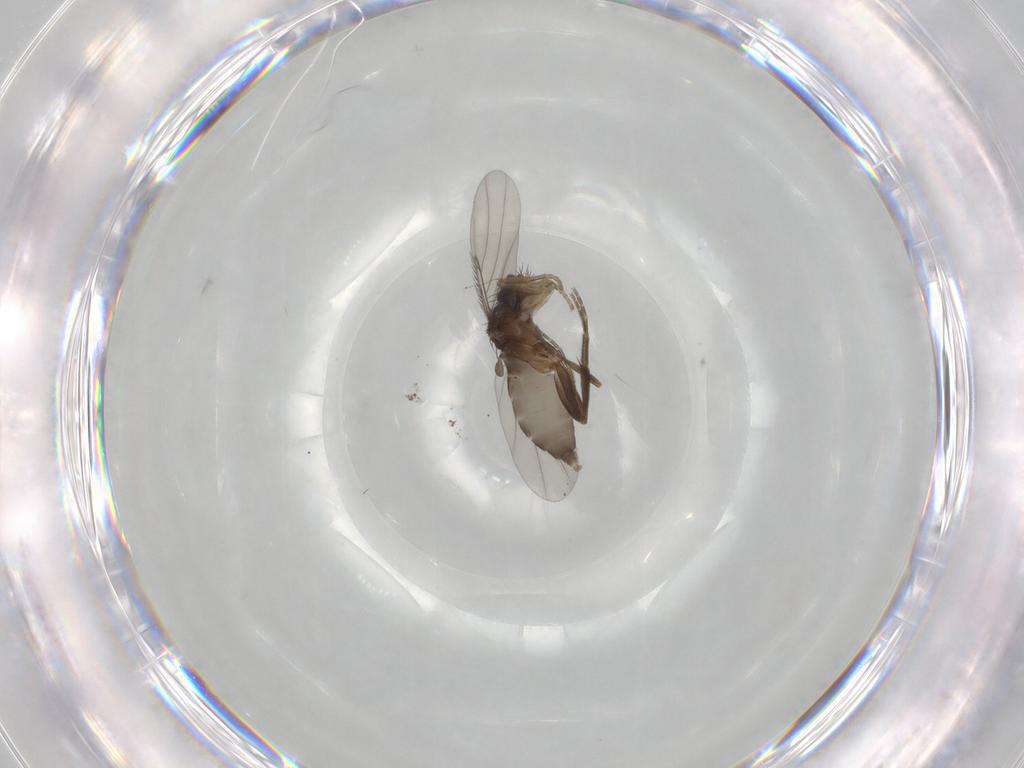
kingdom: Animalia
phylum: Arthropoda
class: Insecta
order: Diptera
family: Phoridae
